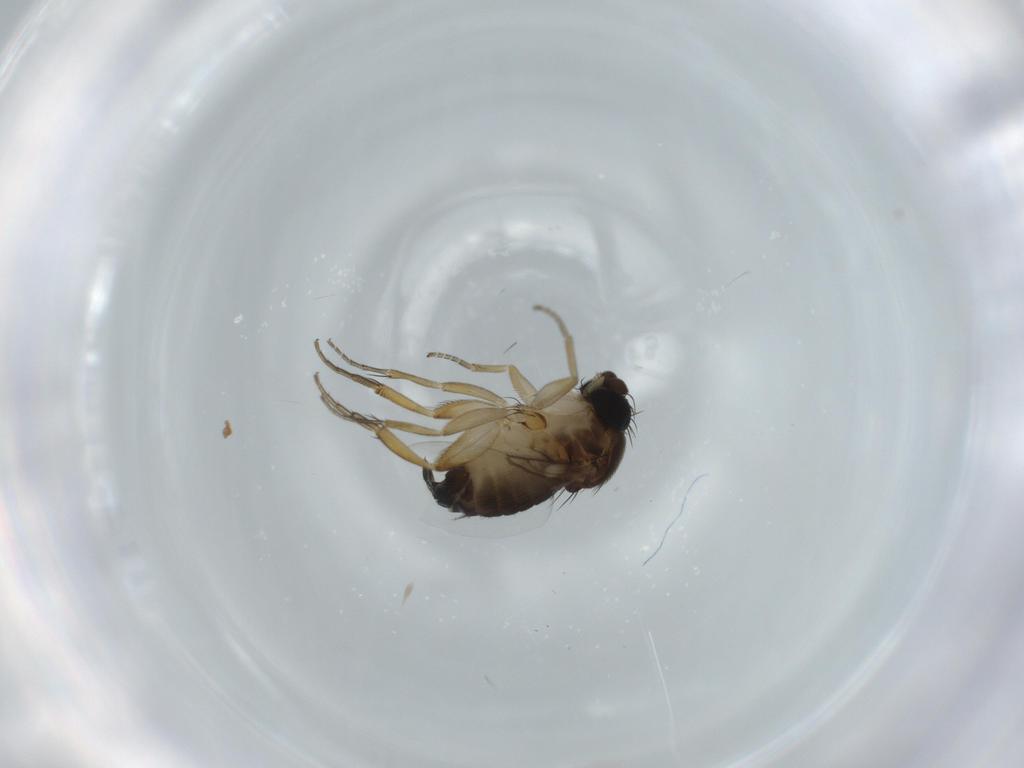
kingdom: Animalia
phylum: Arthropoda
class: Insecta
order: Diptera
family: Phoridae
